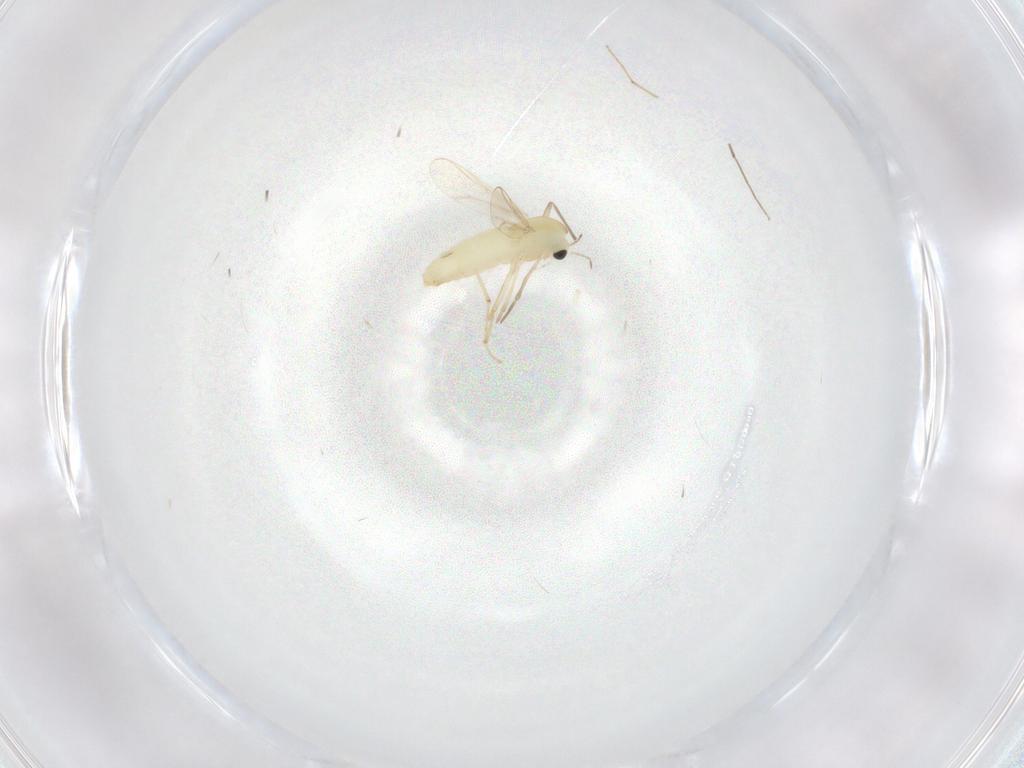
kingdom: Animalia
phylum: Arthropoda
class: Insecta
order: Diptera
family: Chironomidae
